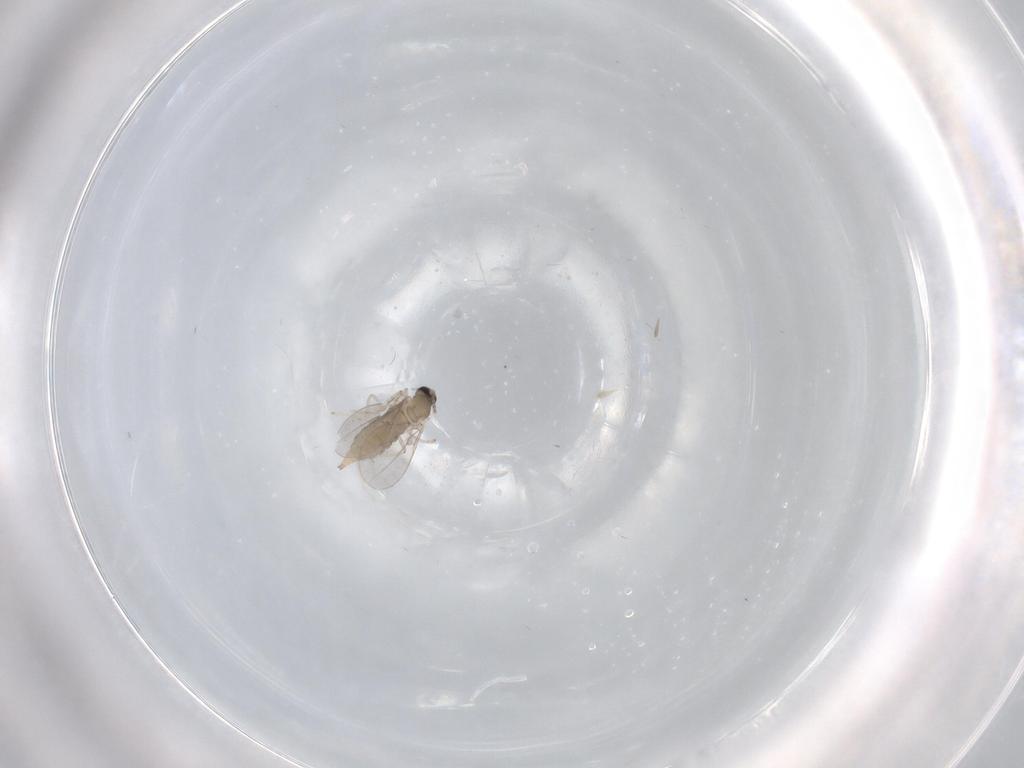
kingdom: Animalia
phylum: Arthropoda
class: Insecta
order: Diptera
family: Cecidomyiidae
